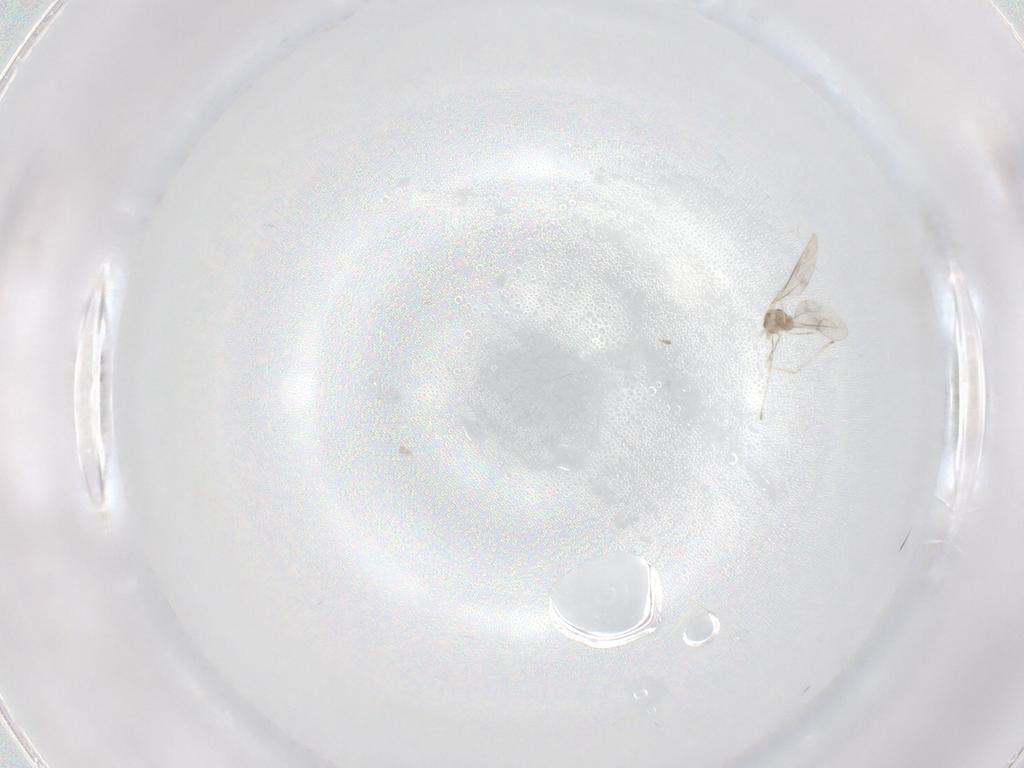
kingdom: Animalia
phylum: Arthropoda
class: Insecta
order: Diptera
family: Cecidomyiidae
